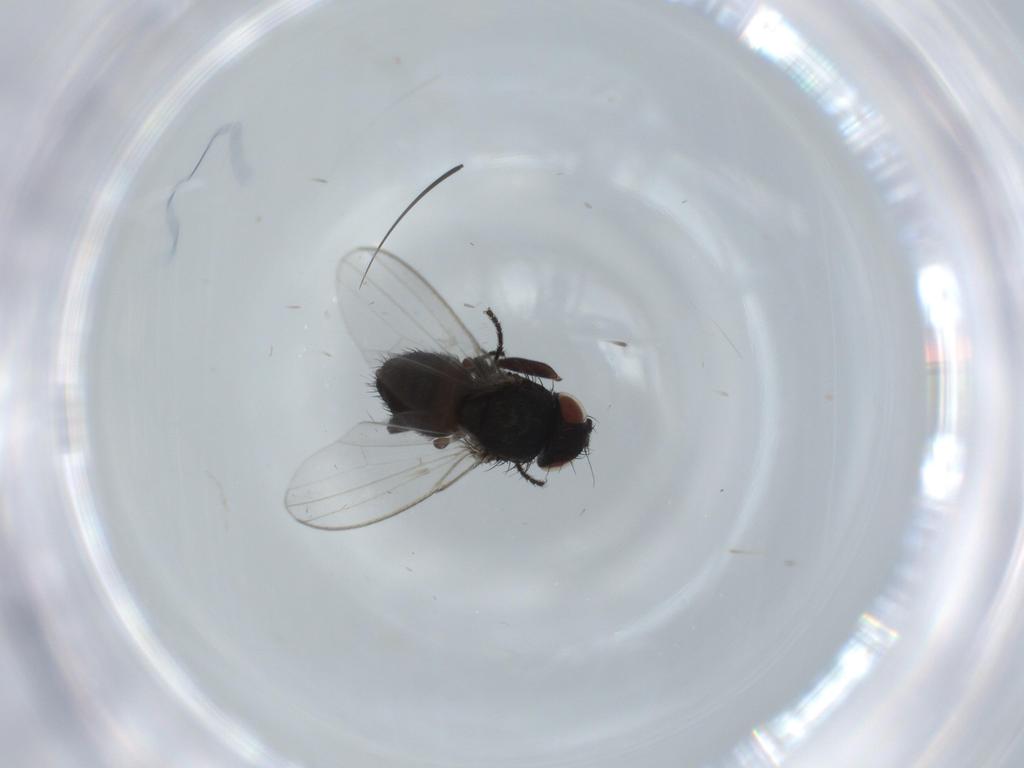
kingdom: Animalia
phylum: Arthropoda
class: Insecta
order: Diptera
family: Milichiidae
